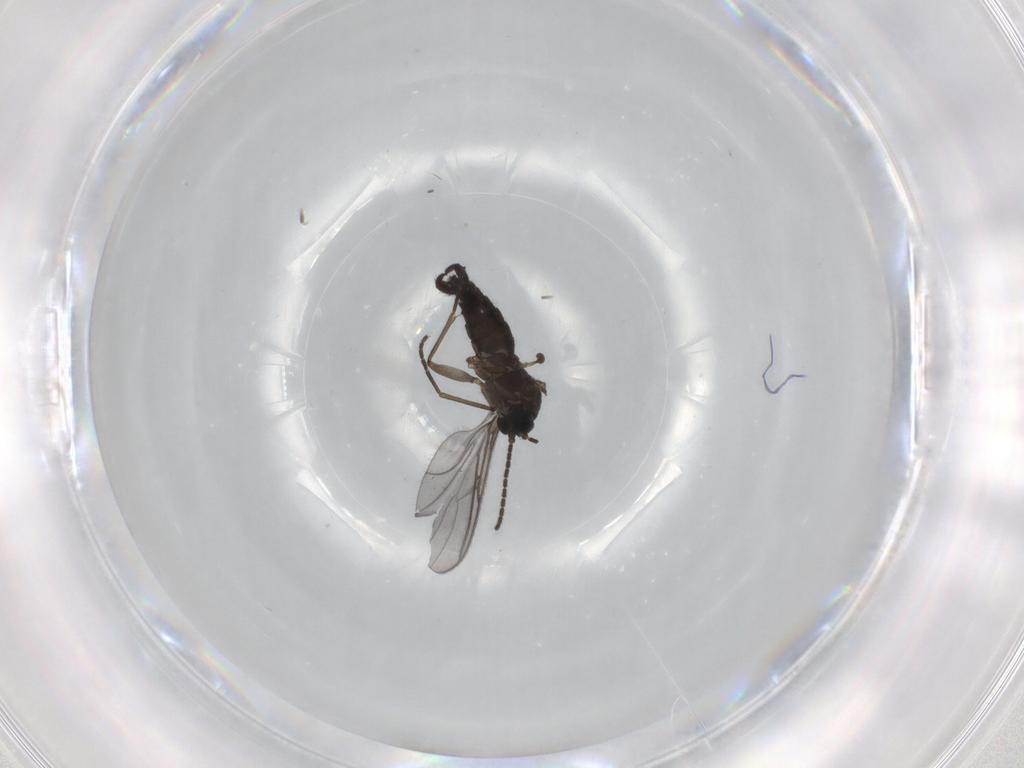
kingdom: Animalia
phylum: Arthropoda
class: Insecta
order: Diptera
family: Sciaridae
